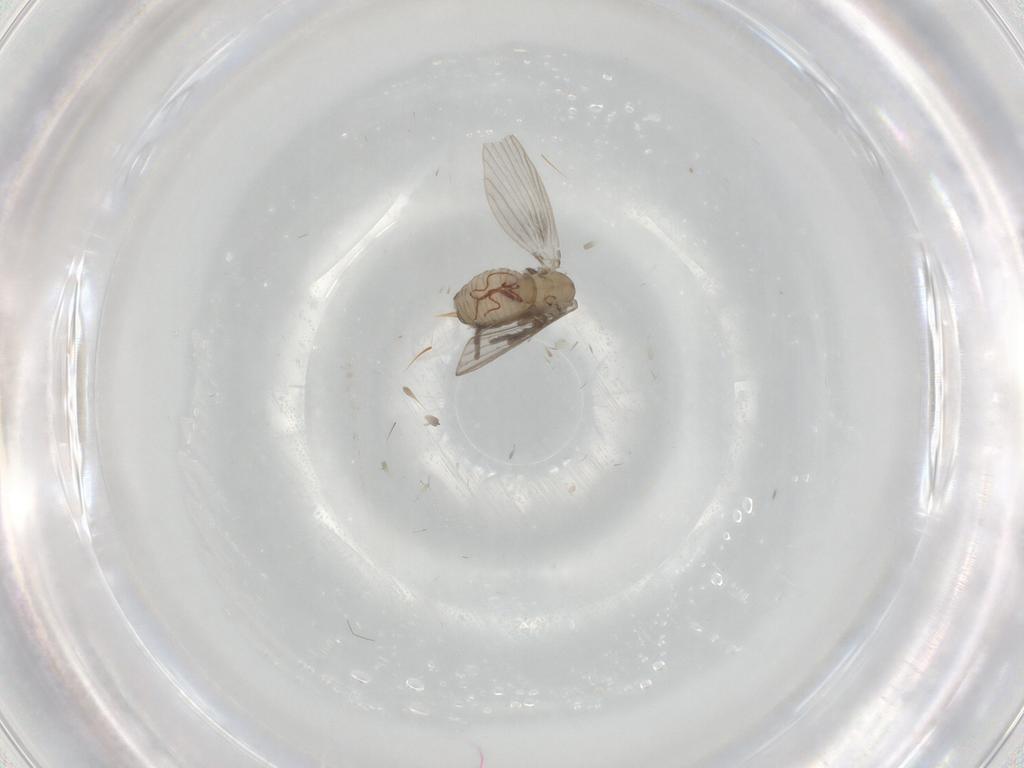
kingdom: Animalia
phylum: Arthropoda
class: Insecta
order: Diptera
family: Psychodidae
